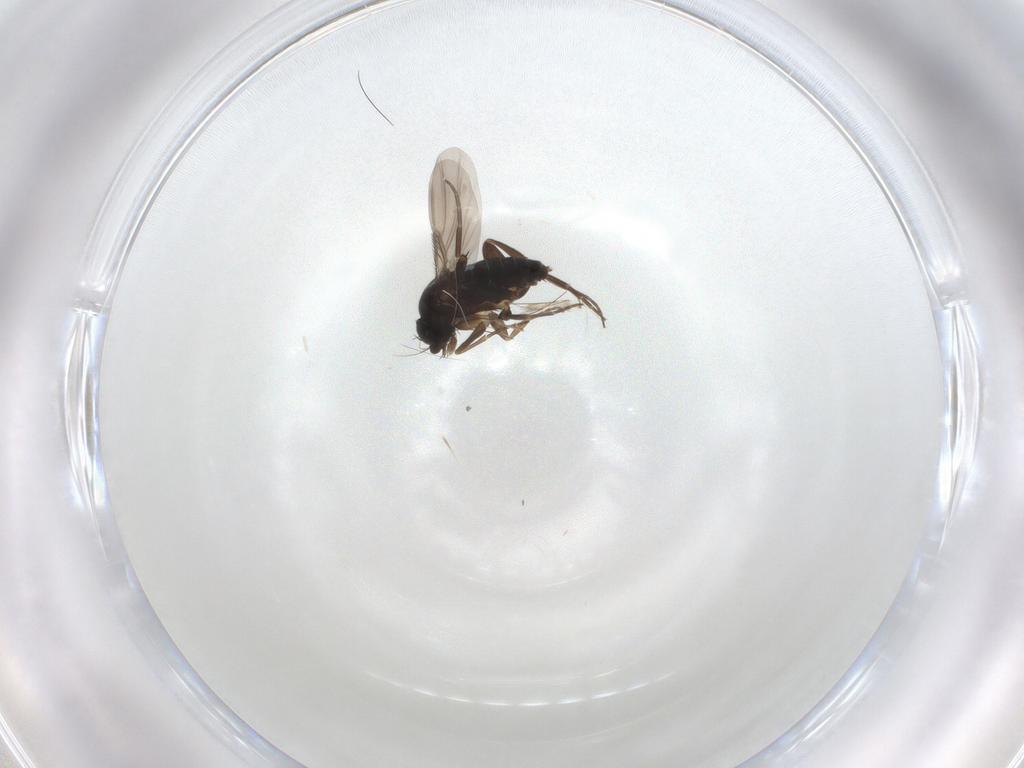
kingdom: Animalia
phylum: Arthropoda
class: Insecta
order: Diptera
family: Phoridae
